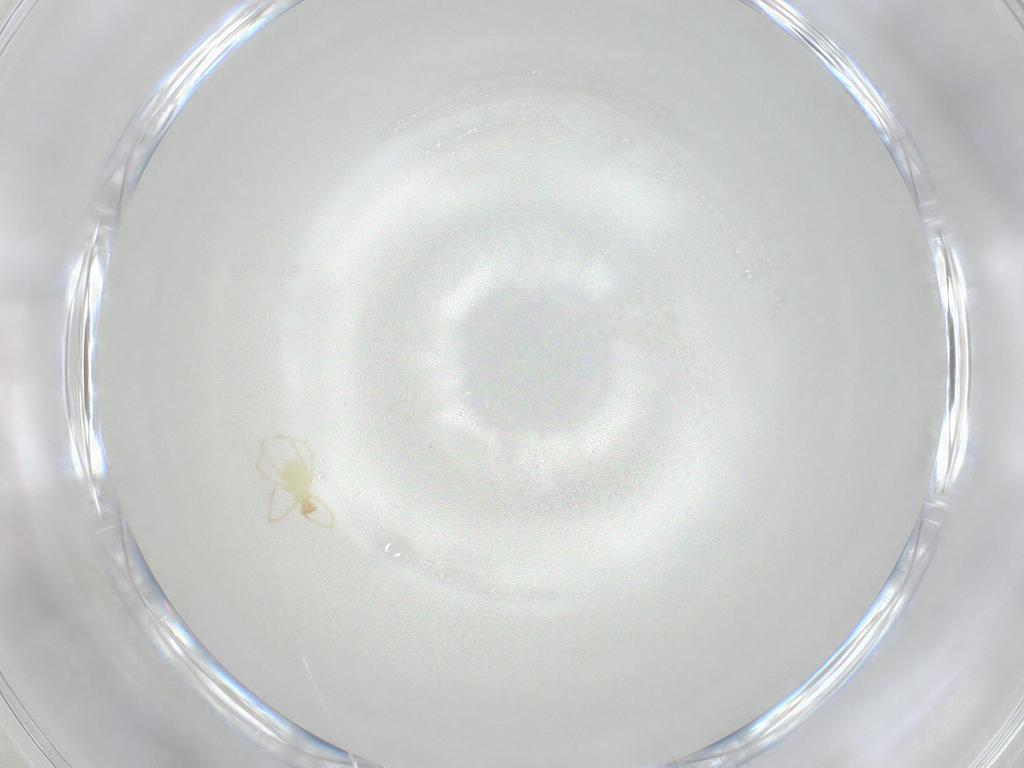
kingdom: Animalia
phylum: Arthropoda
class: Arachnida
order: Trombidiformes
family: Erythraeidae
